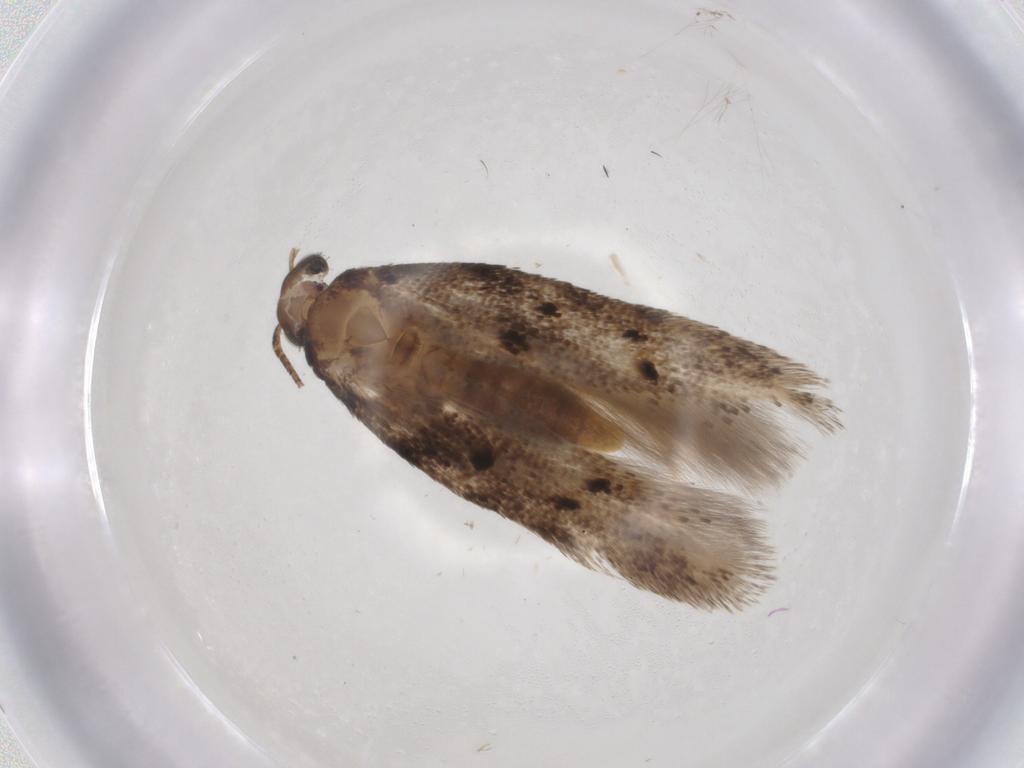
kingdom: Animalia
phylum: Arthropoda
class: Insecta
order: Lepidoptera
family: Gelechiidae
